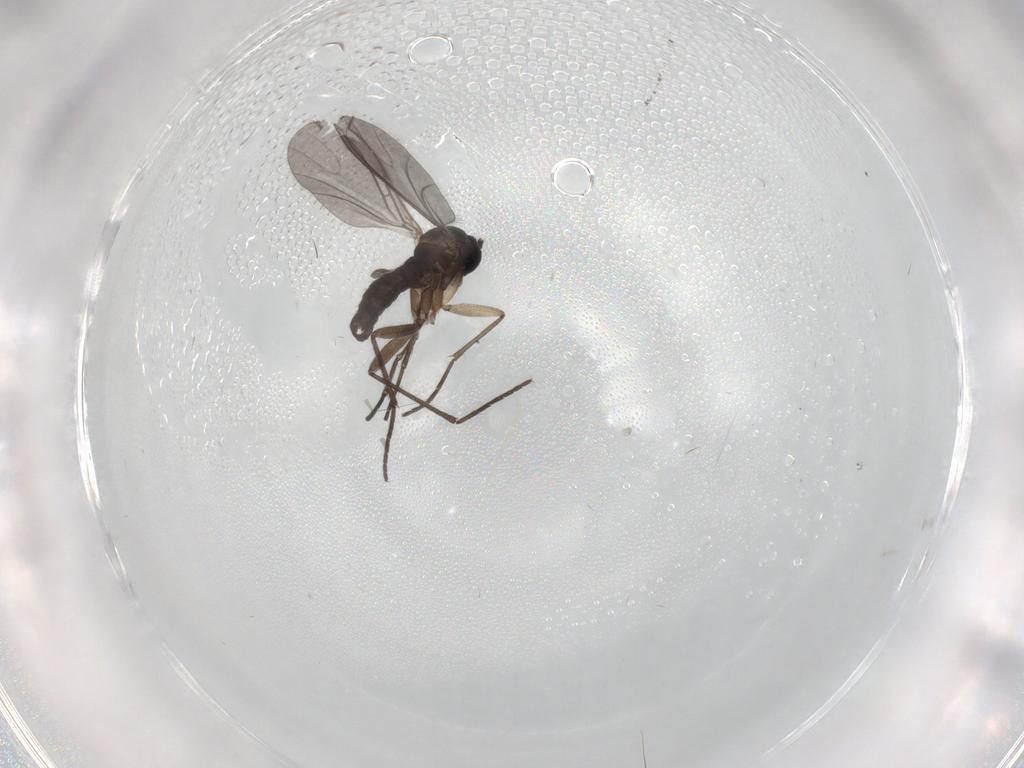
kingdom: Animalia
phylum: Arthropoda
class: Insecta
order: Diptera
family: Sciaridae
